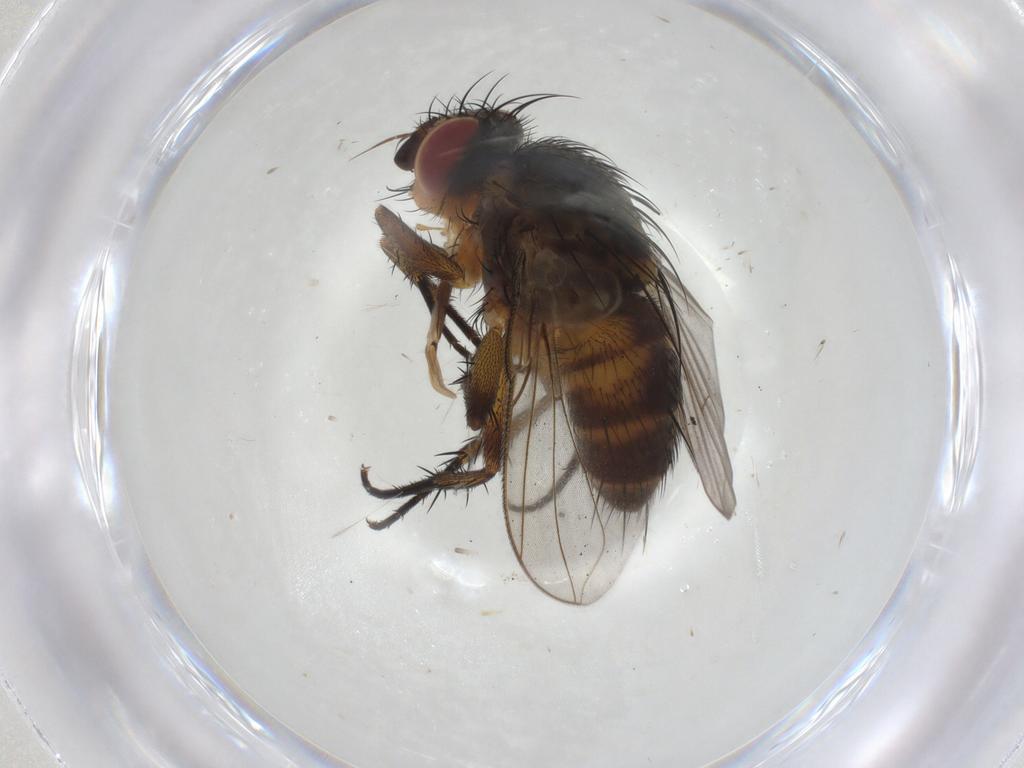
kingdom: Animalia
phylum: Arthropoda
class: Insecta
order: Diptera
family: Tachinidae
